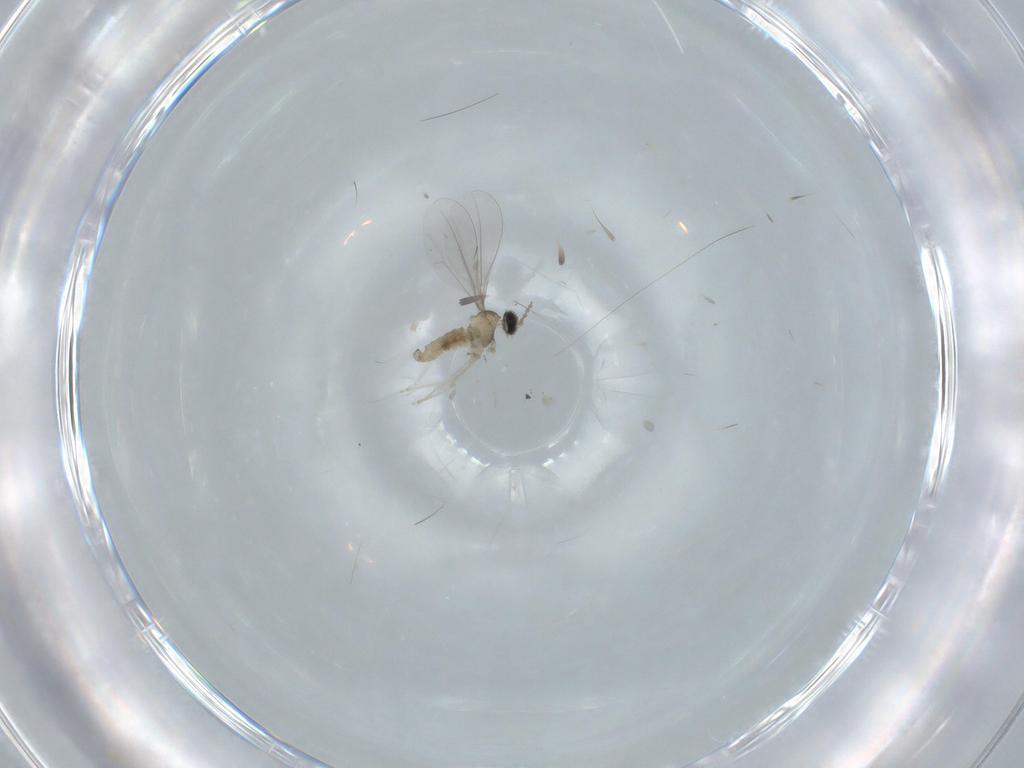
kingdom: Animalia
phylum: Arthropoda
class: Insecta
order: Diptera
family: Cecidomyiidae
